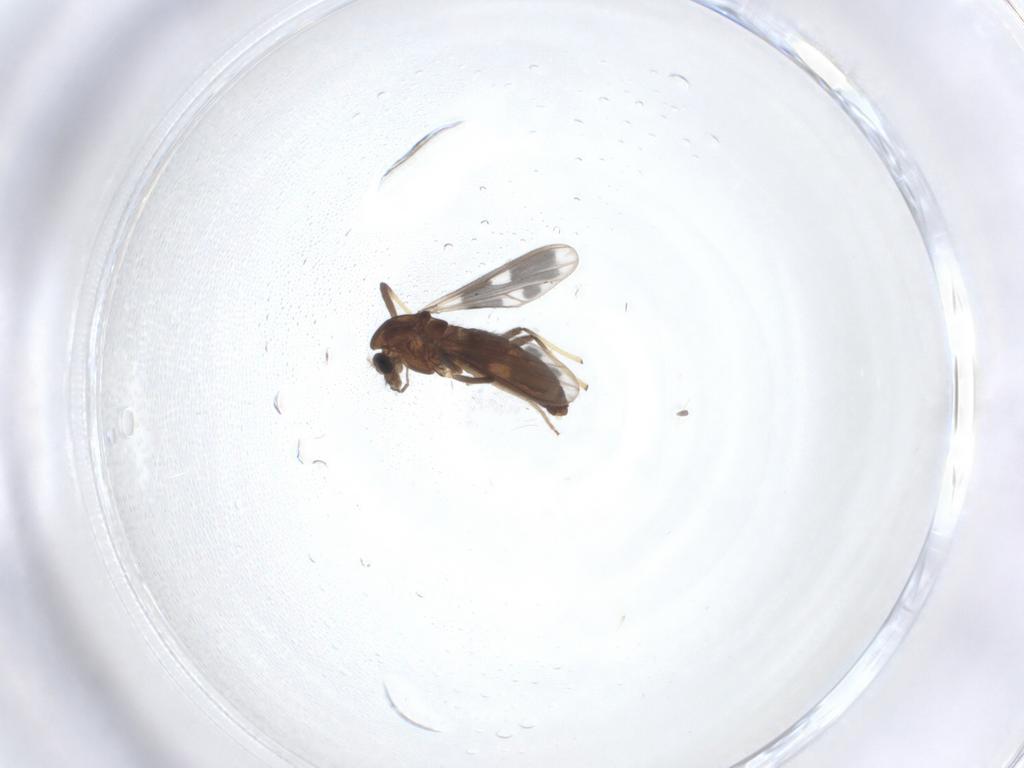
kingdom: Animalia
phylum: Arthropoda
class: Insecta
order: Diptera
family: Chironomidae
